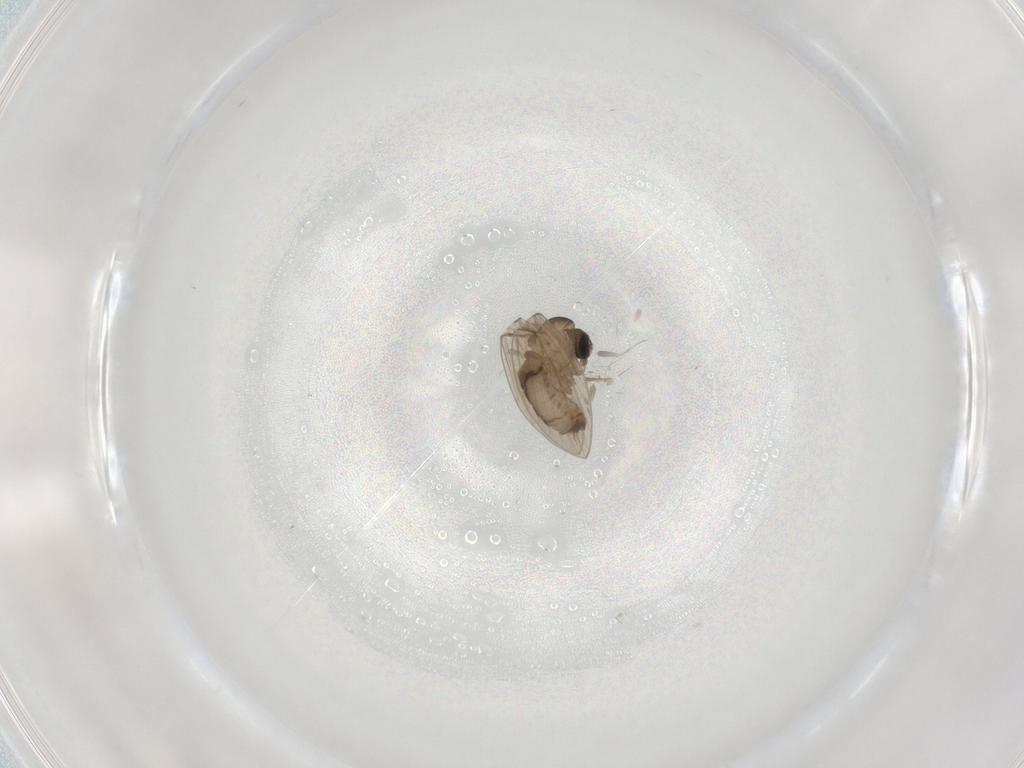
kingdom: Animalia
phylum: Arthropoda
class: Insecta
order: Diptera
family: Psychodidae
